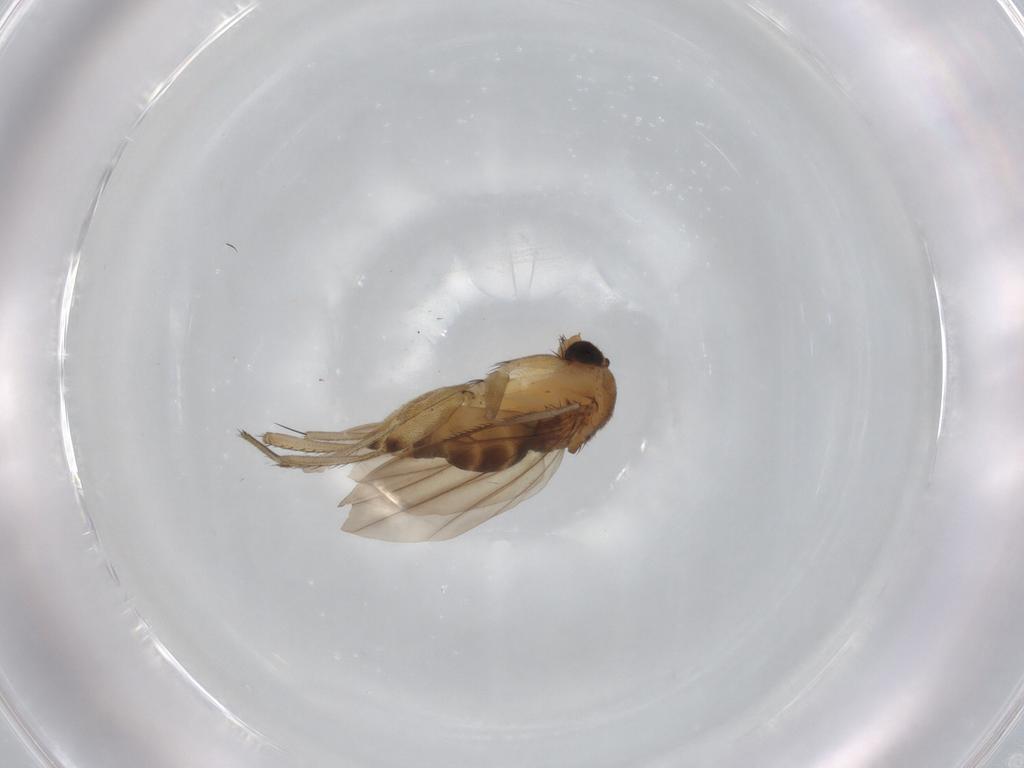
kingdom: Animalia
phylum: Arthropoda
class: Insecta
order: Diptera
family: Phoridae
